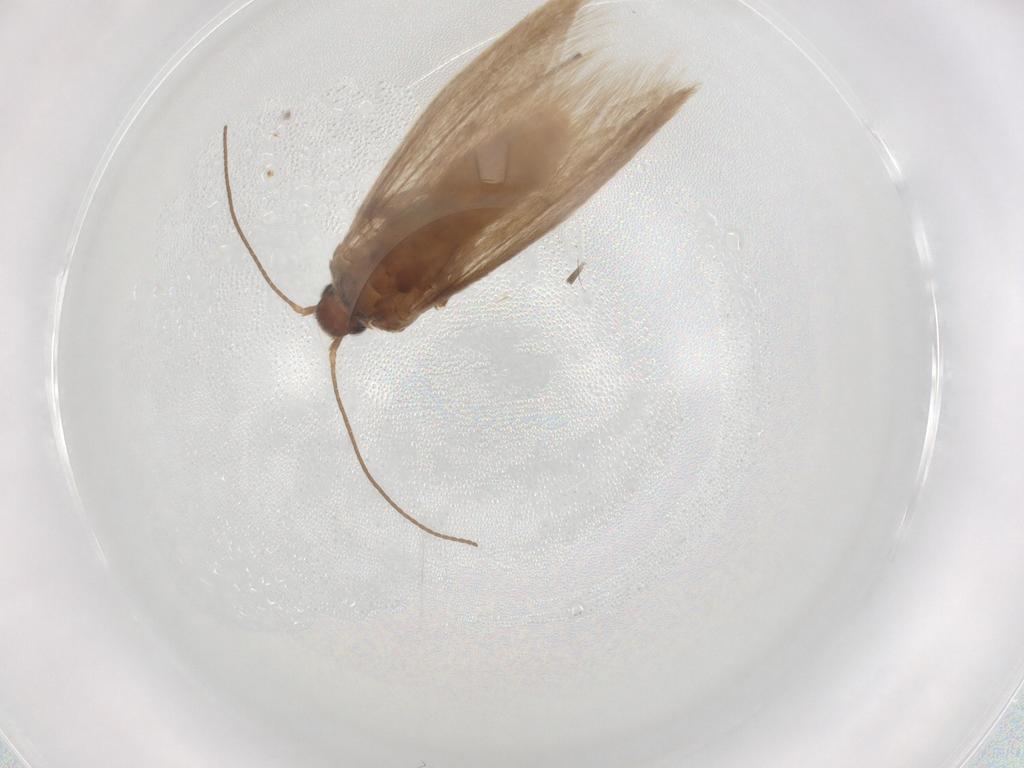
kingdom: Animalia
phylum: Arthropoda
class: Insecta
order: Lepidoptera
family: Limacodidae
